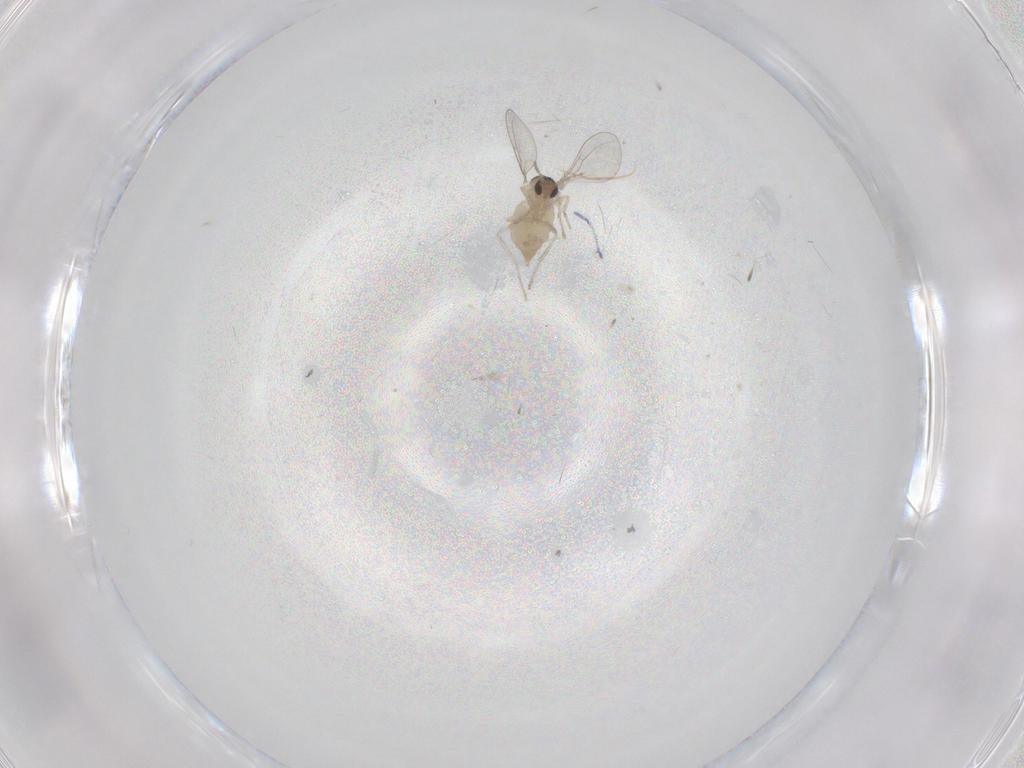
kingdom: Animalia
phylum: Arthropoda
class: Insecta
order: Diptera
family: Cecidomyiidae
